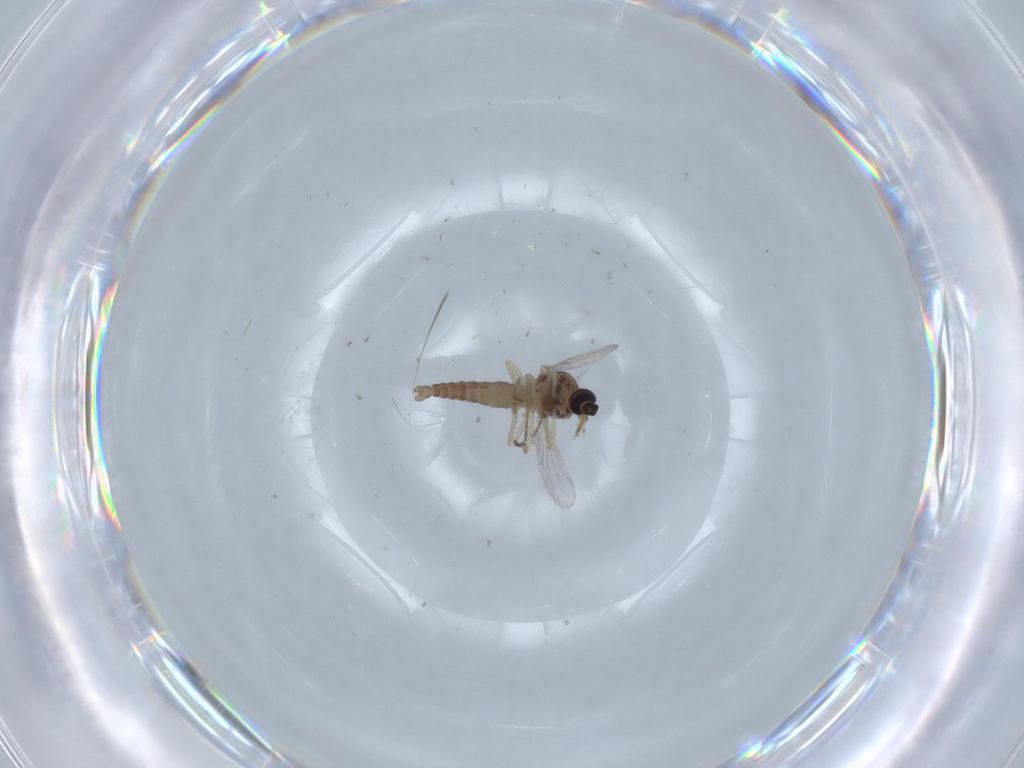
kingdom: Animalia
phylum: Arthropoda
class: Insecta
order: Diptera
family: Ceratopogonidae
